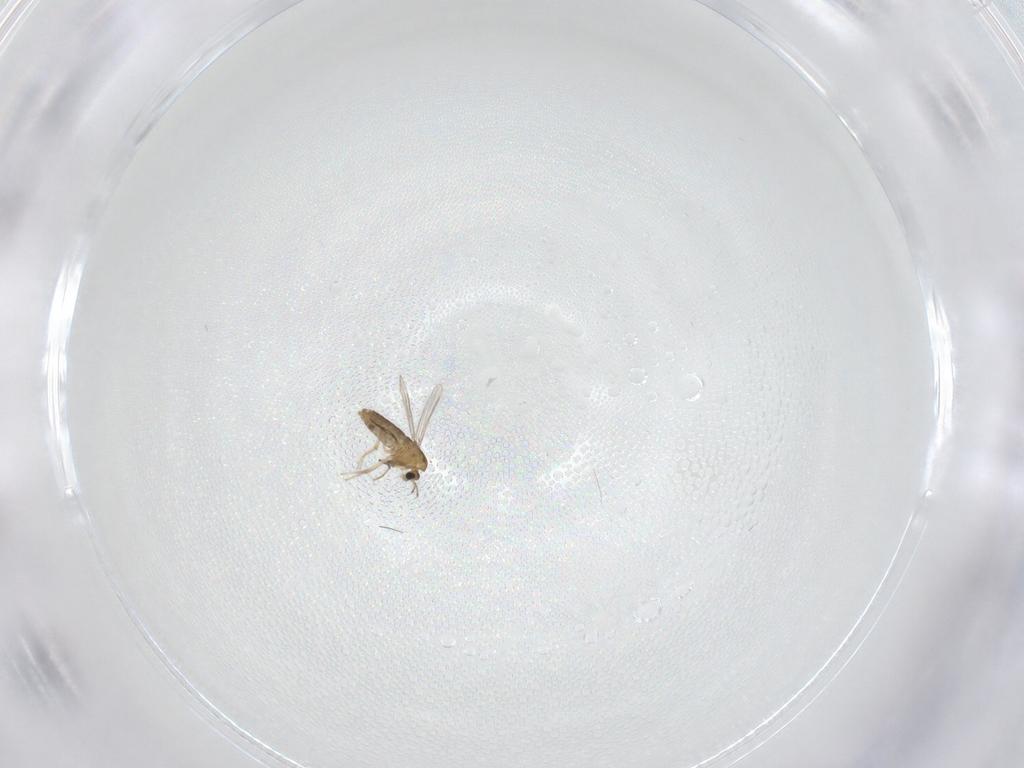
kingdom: Animalia
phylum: Arthropoda
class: Insecta
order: Diptera
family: Chironomidae
